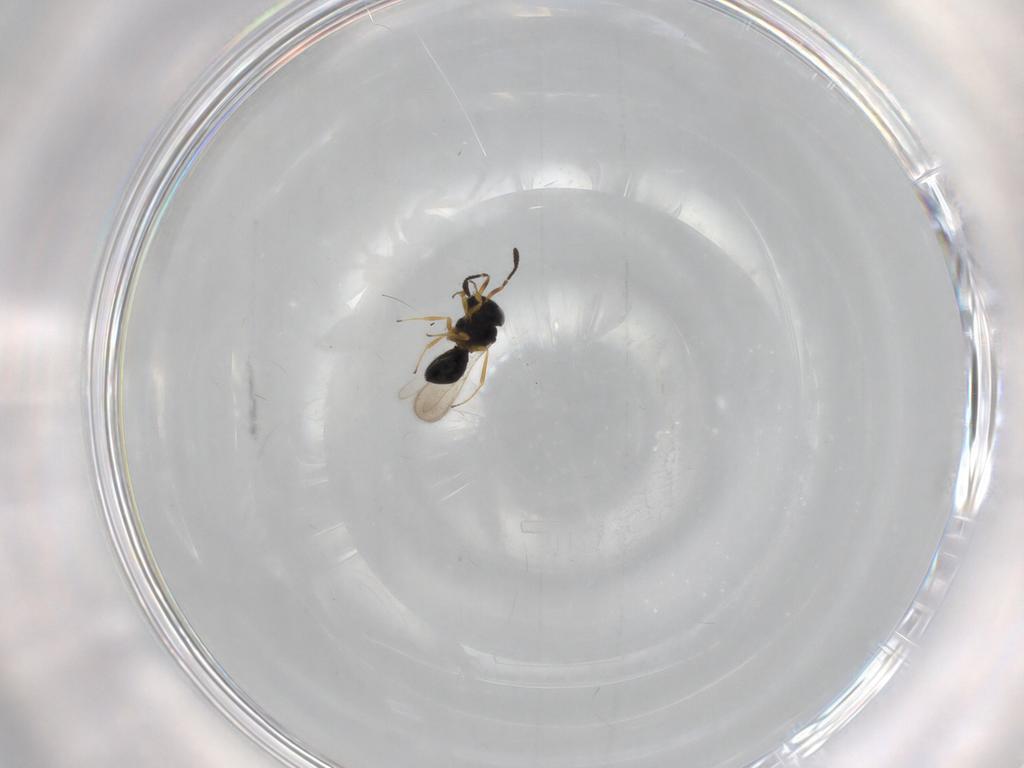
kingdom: Animalia
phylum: Arthropoda
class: Insecta
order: Hymenoptera
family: Scelionidae
